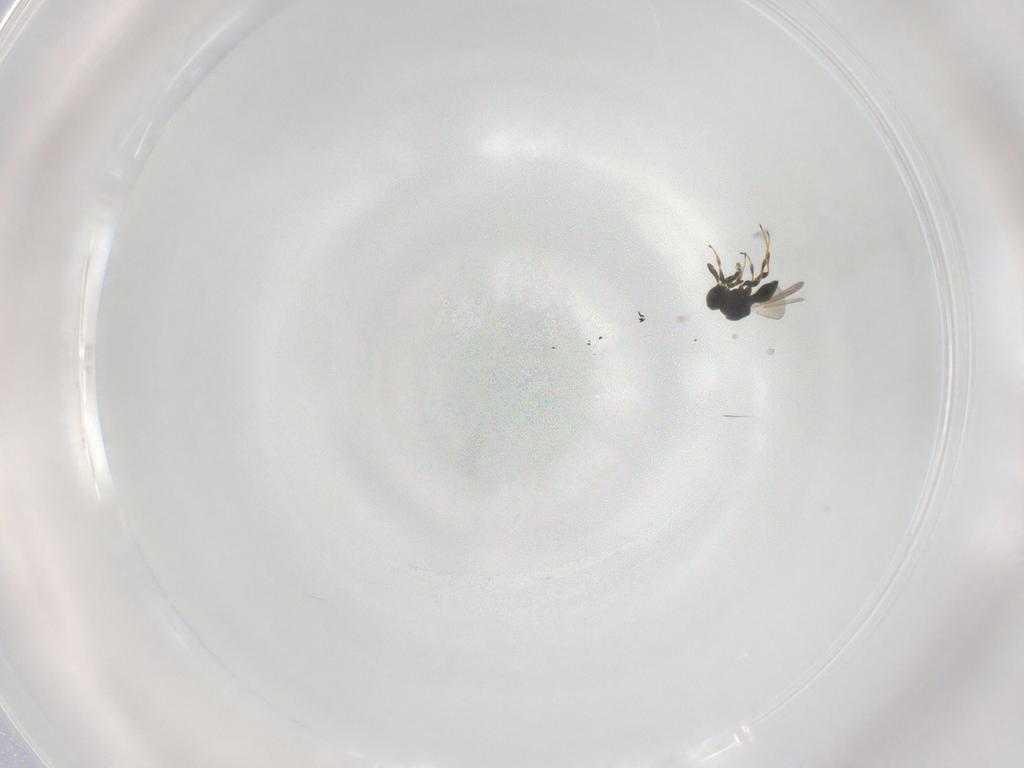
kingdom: Animalia
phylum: Arthropoda
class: Insecta
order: Hymenoptera
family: Platygastridae
